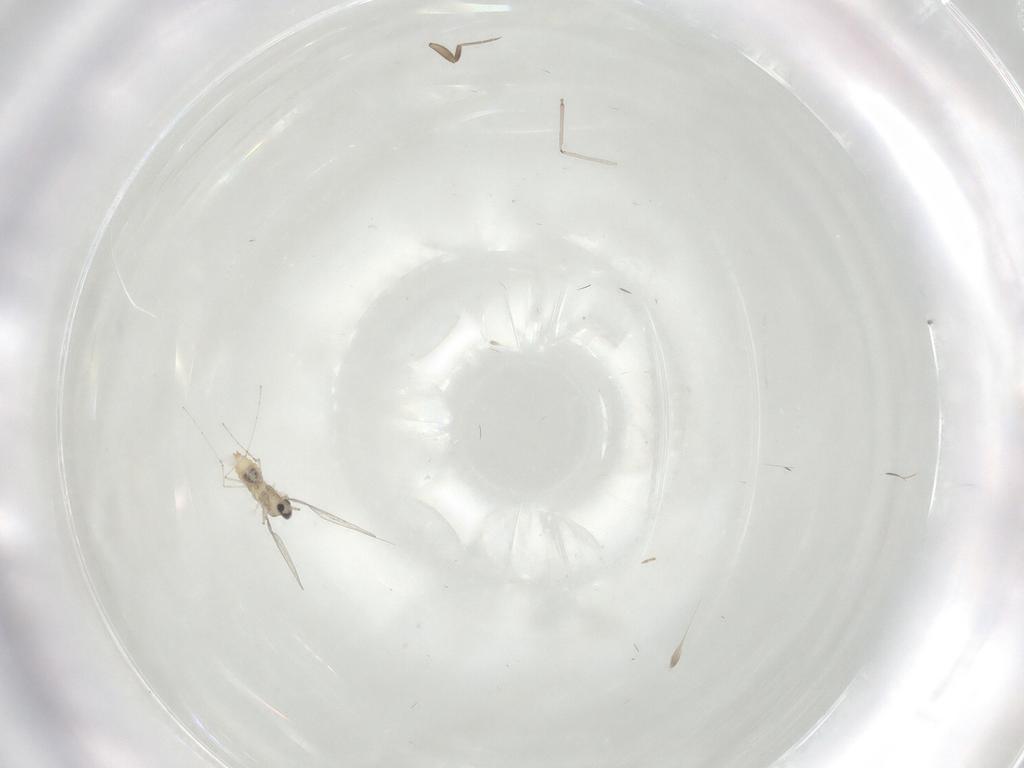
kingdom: Animalia
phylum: Arthropoda
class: Insecta
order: Diptera
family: Cecidomyiidae
